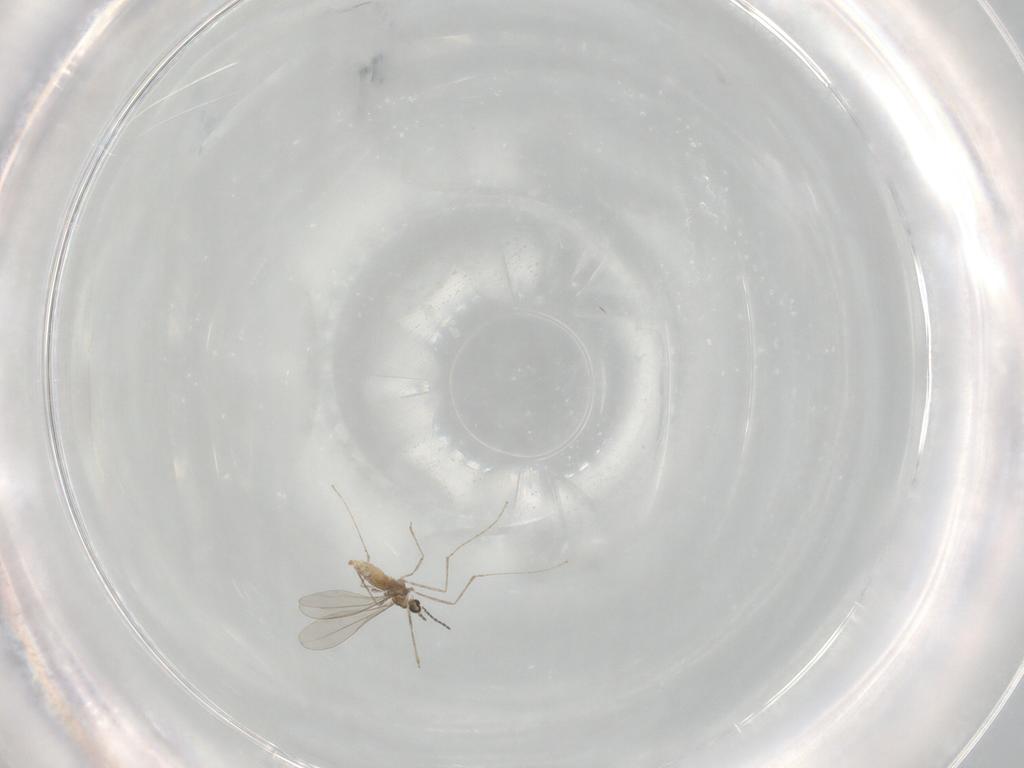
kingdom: Animalia
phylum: Arthropoda
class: Insecta
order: Diptera
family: Cecidomyiidae
